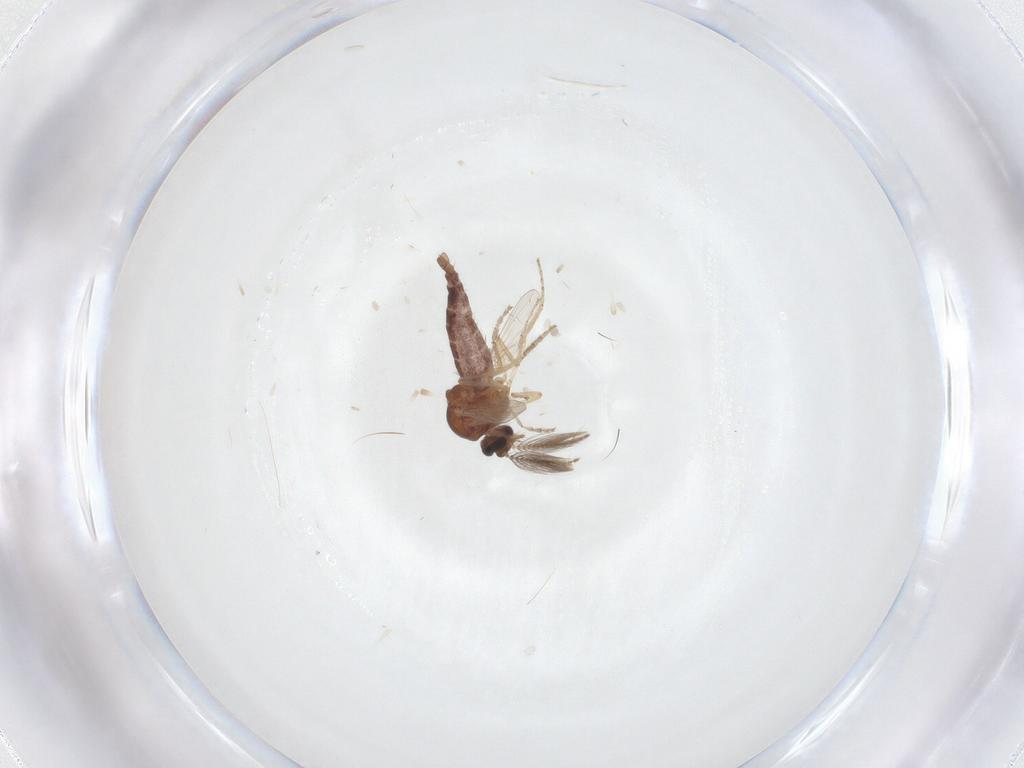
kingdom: Animalia
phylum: Arthropoda
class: Insecta
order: Diptera
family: Ceratopogonidae
